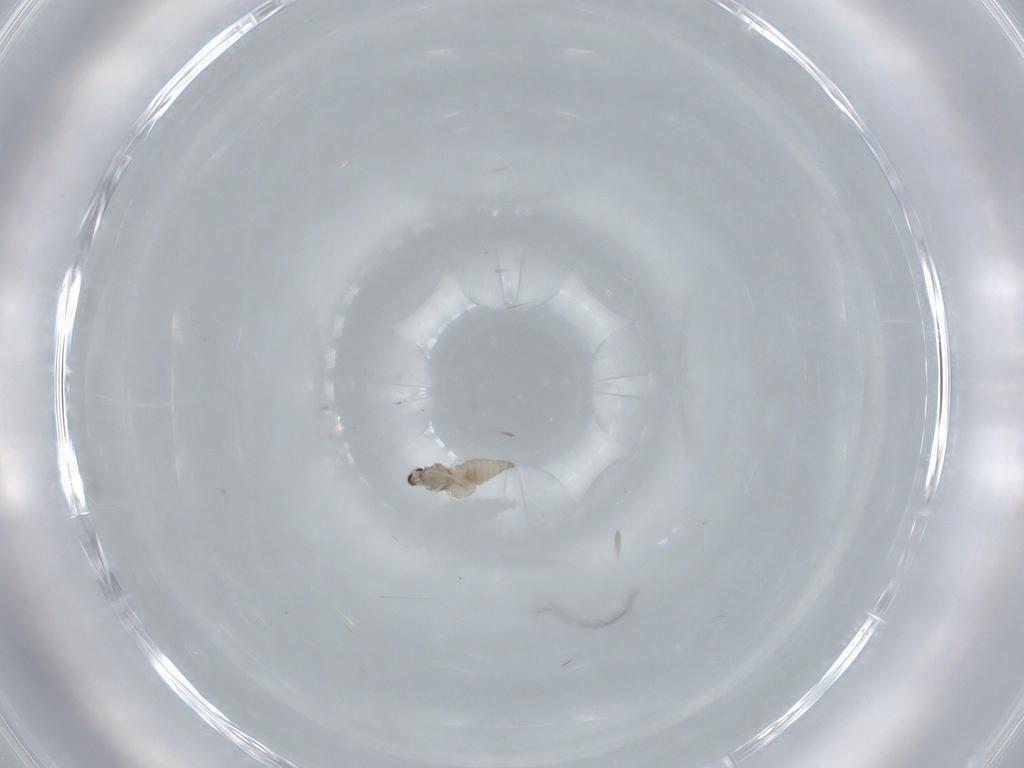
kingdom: Animalia
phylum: Arthropoda
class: Insecta
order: Diptera
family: Cecidomyiidae
